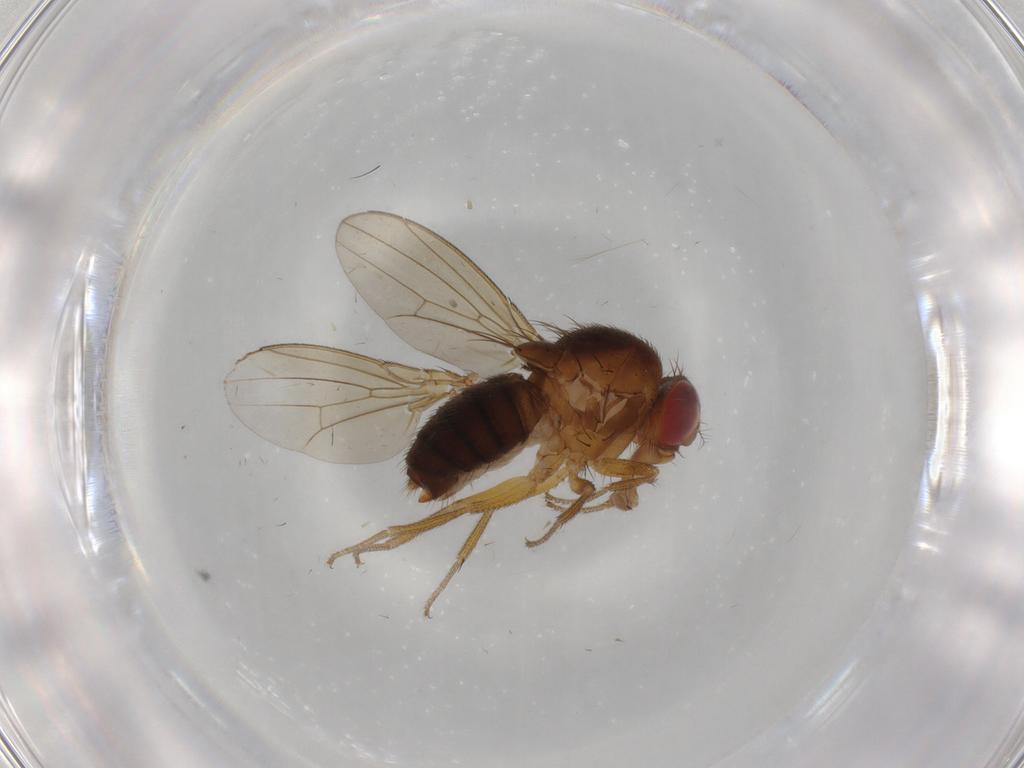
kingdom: Animalia
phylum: Arthropoda
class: Insecta
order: Diptera
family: Drosophilidae
